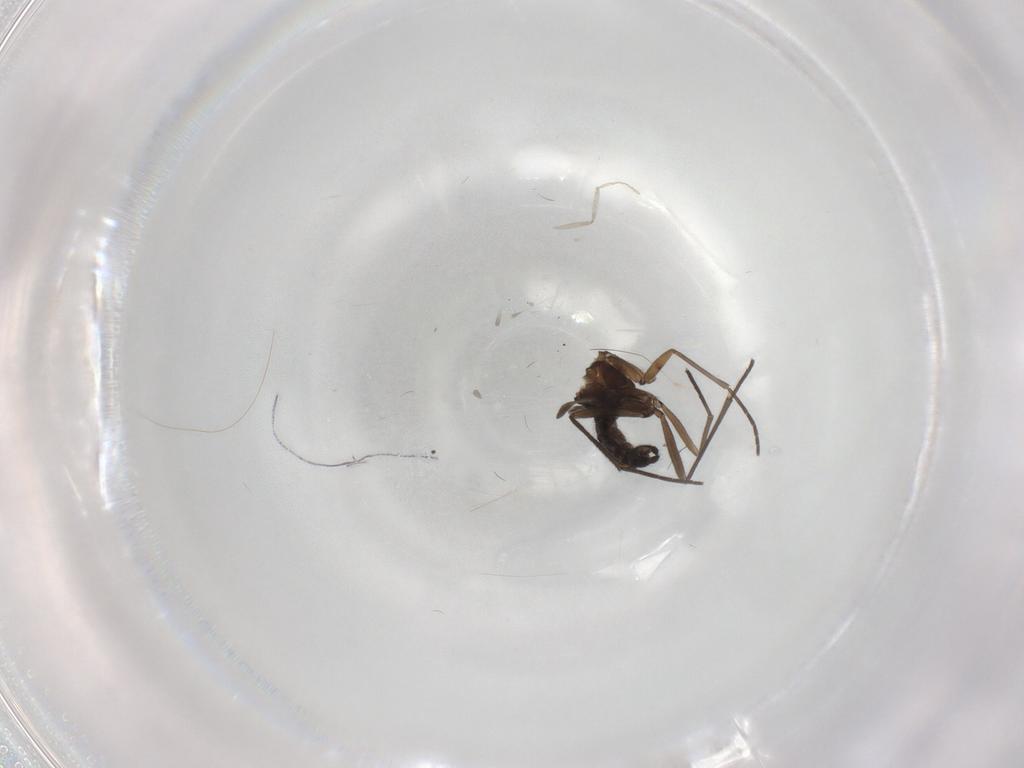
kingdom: Animalia
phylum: Arthropoda
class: Insecta
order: Diptera
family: Sciaridae
